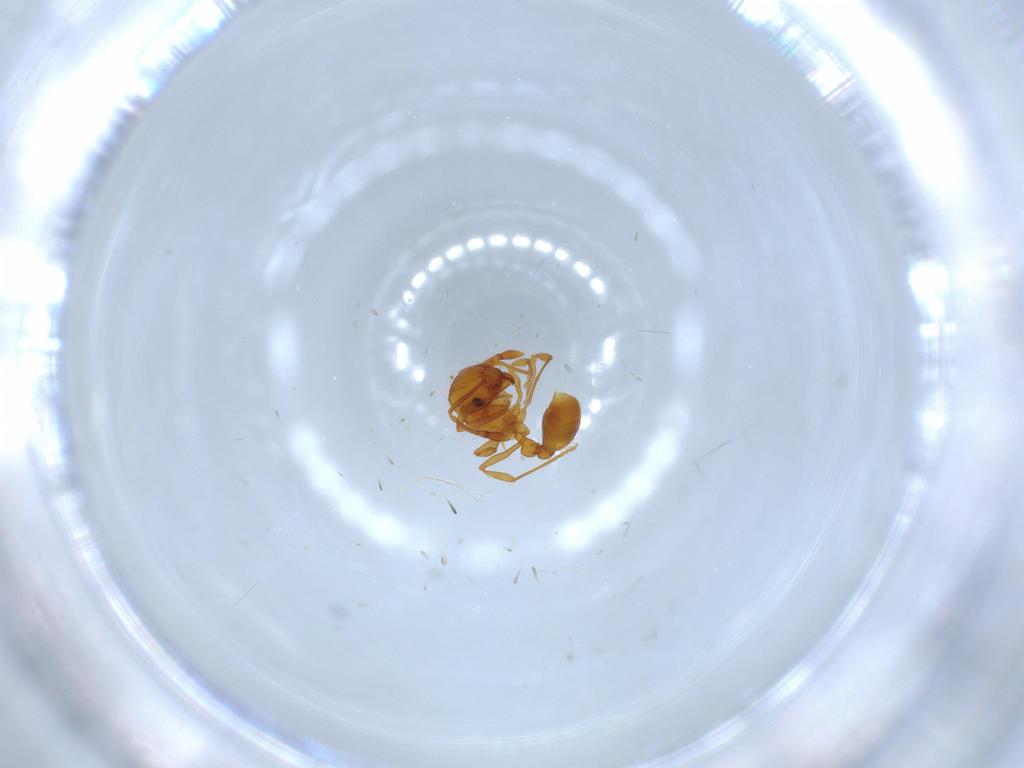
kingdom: Animalia
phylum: Arthropoda
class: Insecta
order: Hymenoptera
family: Formicidae
